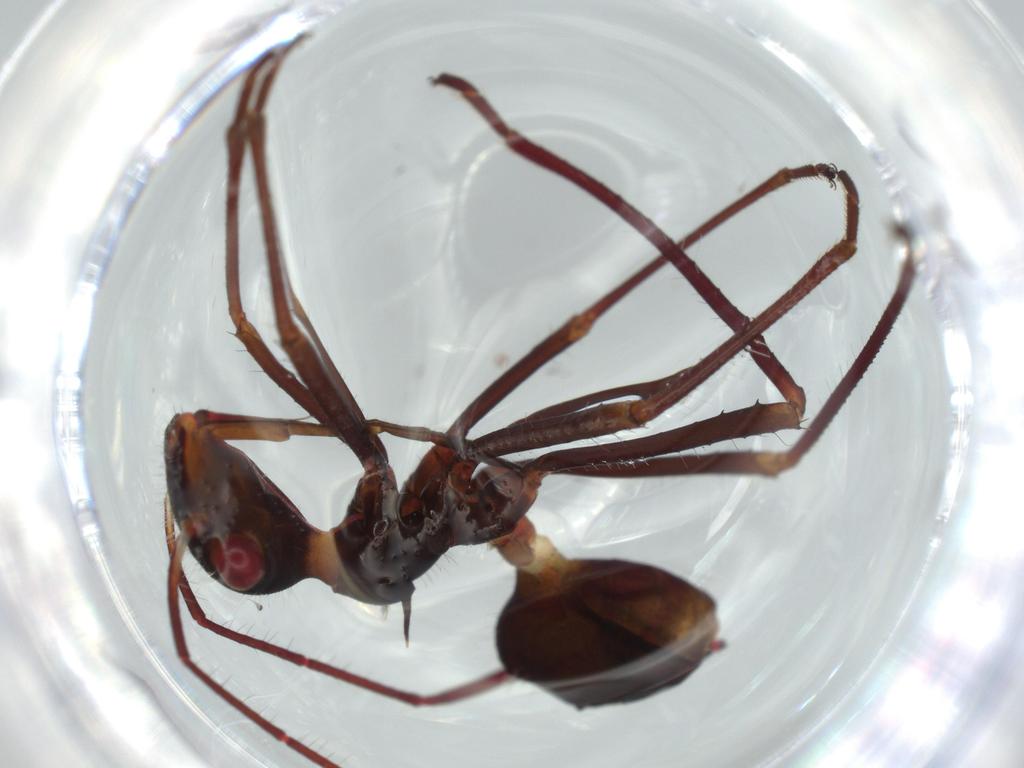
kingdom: Animalia
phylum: Arthropoda
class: Insecta
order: Hemiptera
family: Alydidae
